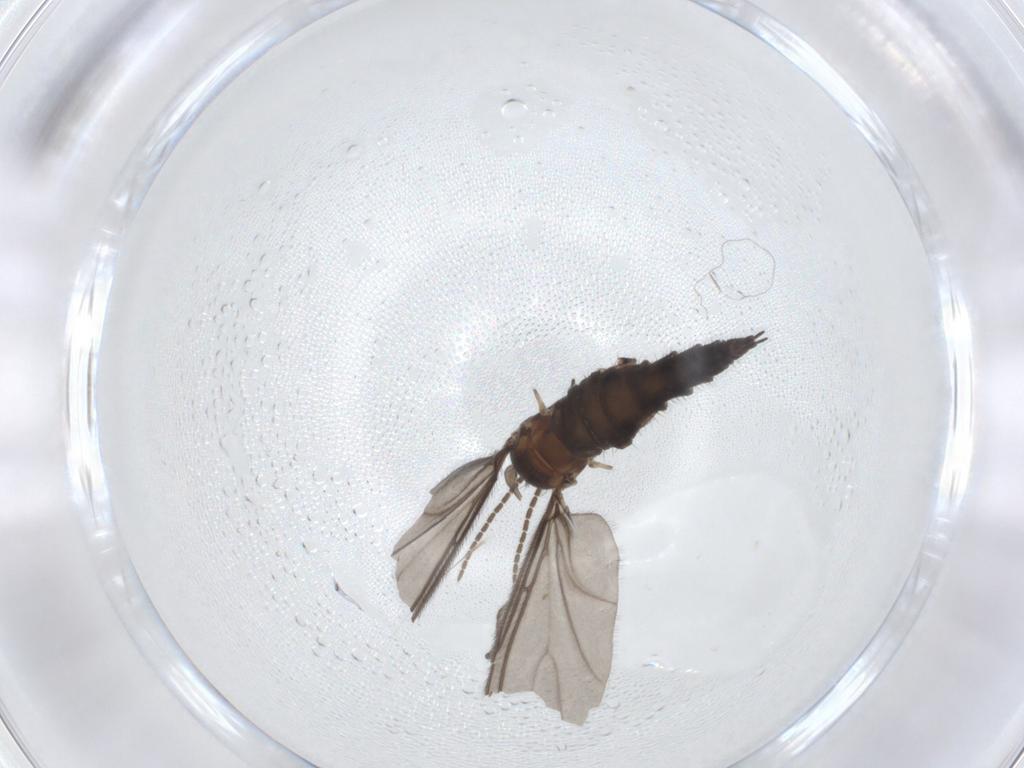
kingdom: Animalia
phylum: Arthropoda
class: Insecta
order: Diptera
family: Sciaridae
